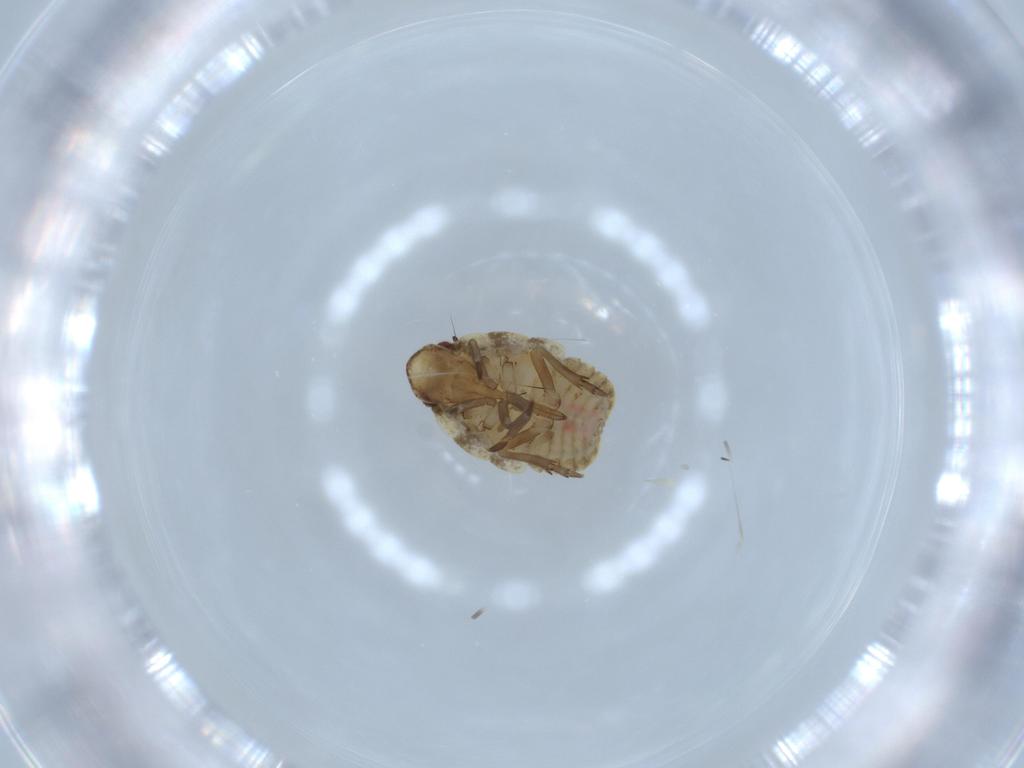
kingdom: Animalia
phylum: Arthropoda
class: Insecta
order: Hemiptera
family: Flatidae
